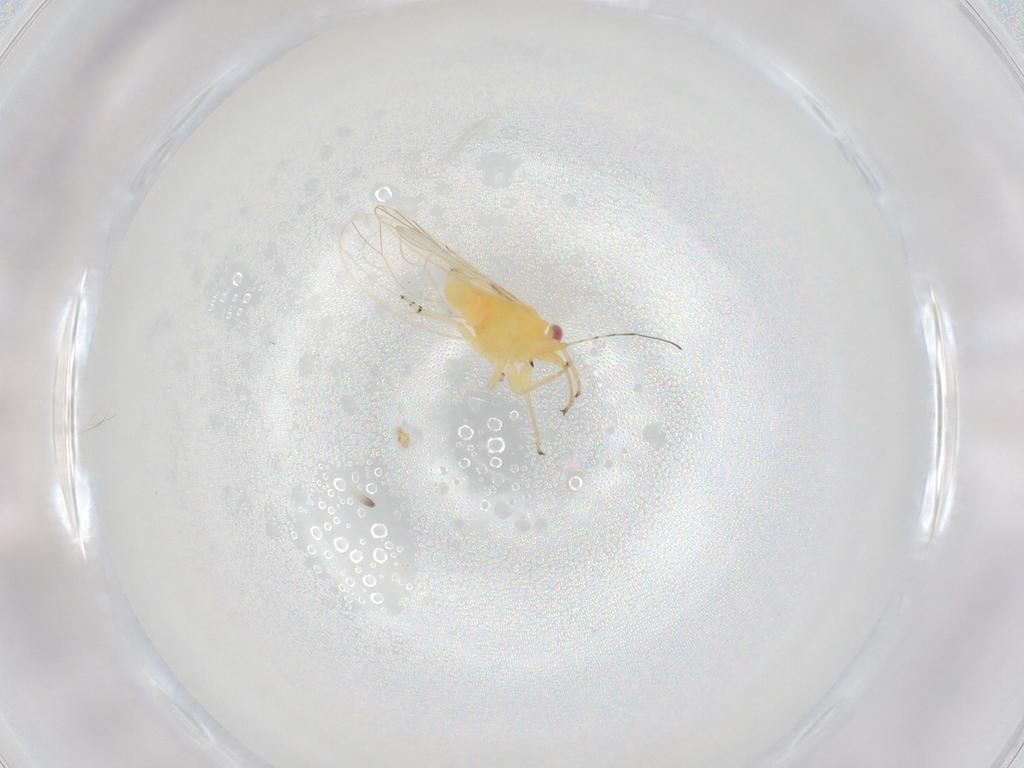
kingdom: Animalia
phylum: Arthropoda
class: Insecta
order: Hemiptera
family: Psyllidae
